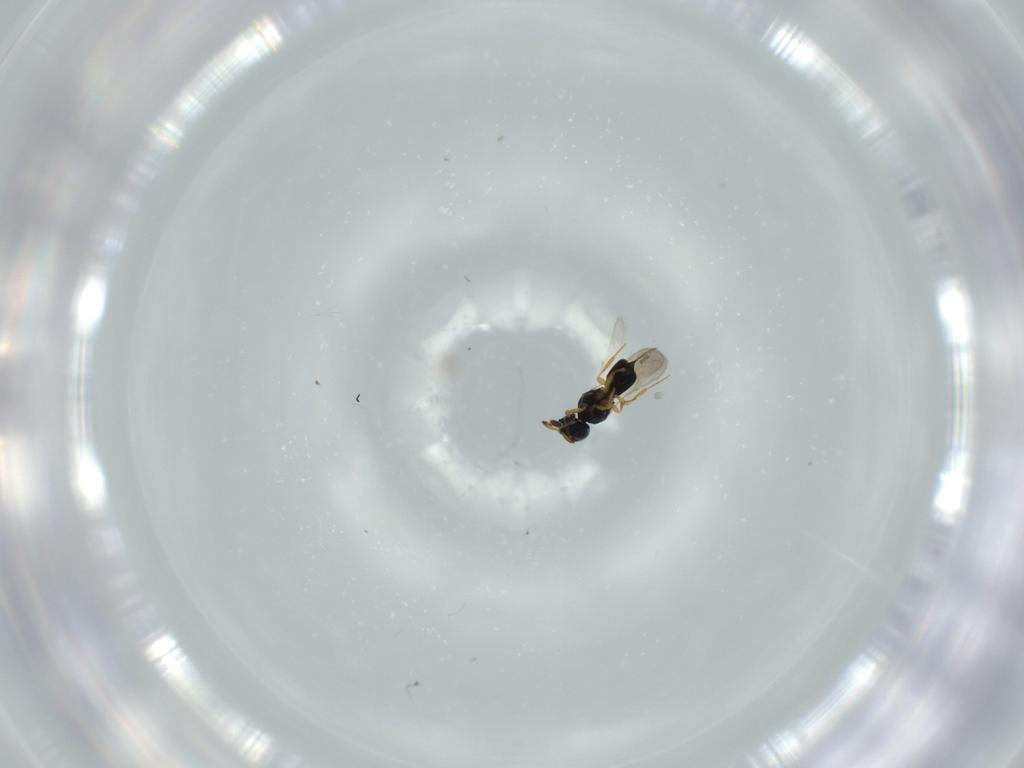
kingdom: Animalia
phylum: Arthropoda
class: Insecta
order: Hymenoptera
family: Scelionidae
